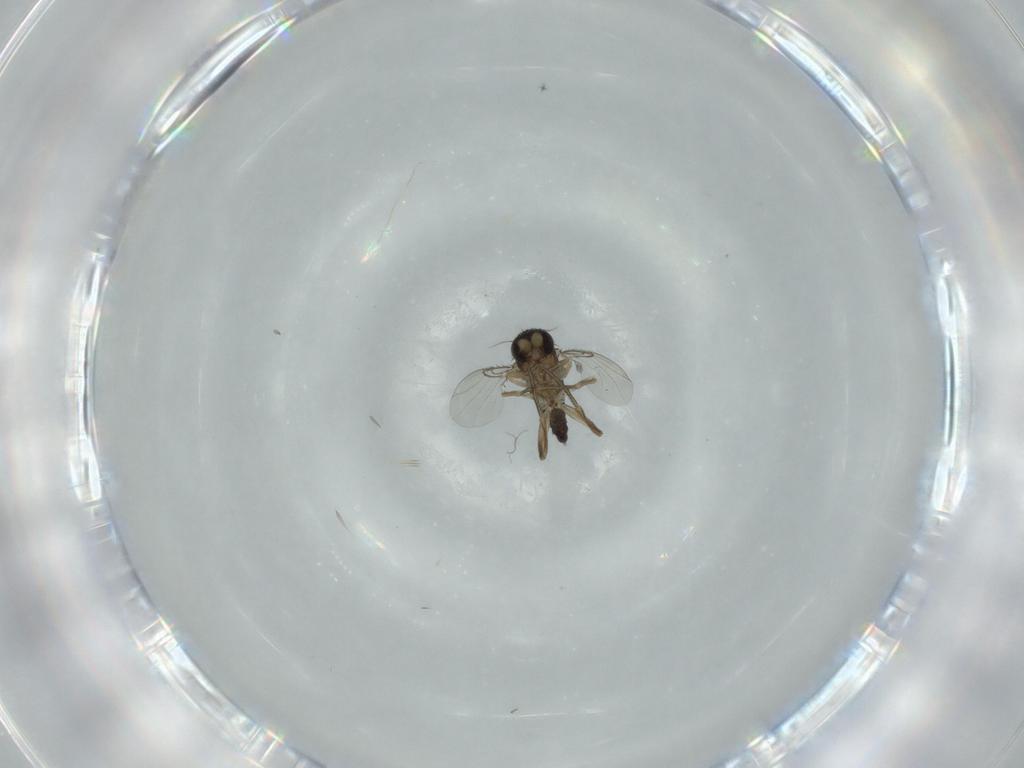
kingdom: Animalia
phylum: Arthropoda
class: Insecta
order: Diptera
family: Phoridae
